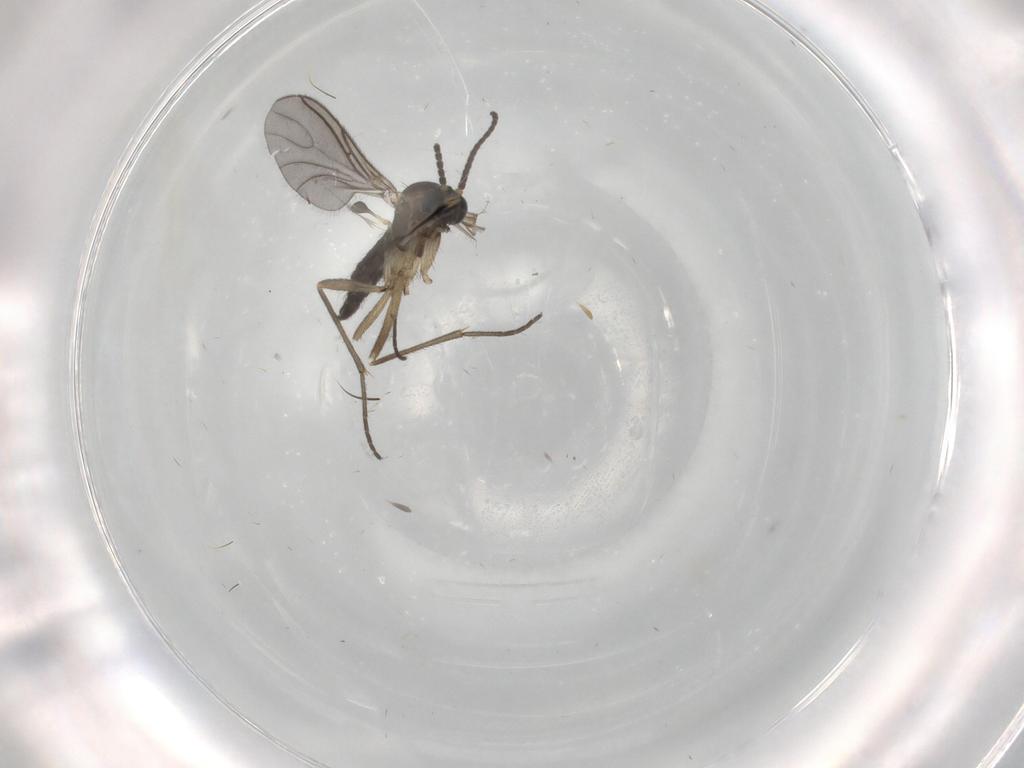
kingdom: Animalia
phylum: Arthropoda
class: Insecta
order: Diptera
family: Sciaridae
